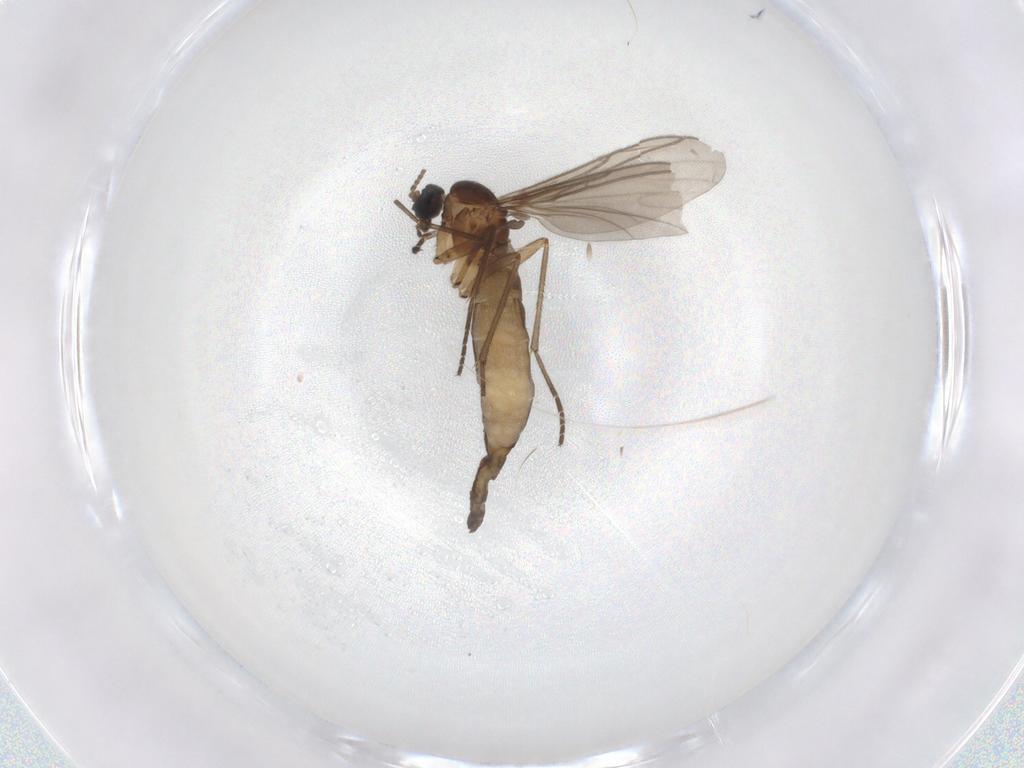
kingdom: Animalia
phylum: Arthropoda
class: Insecta
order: Diptera
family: Sciaridae
